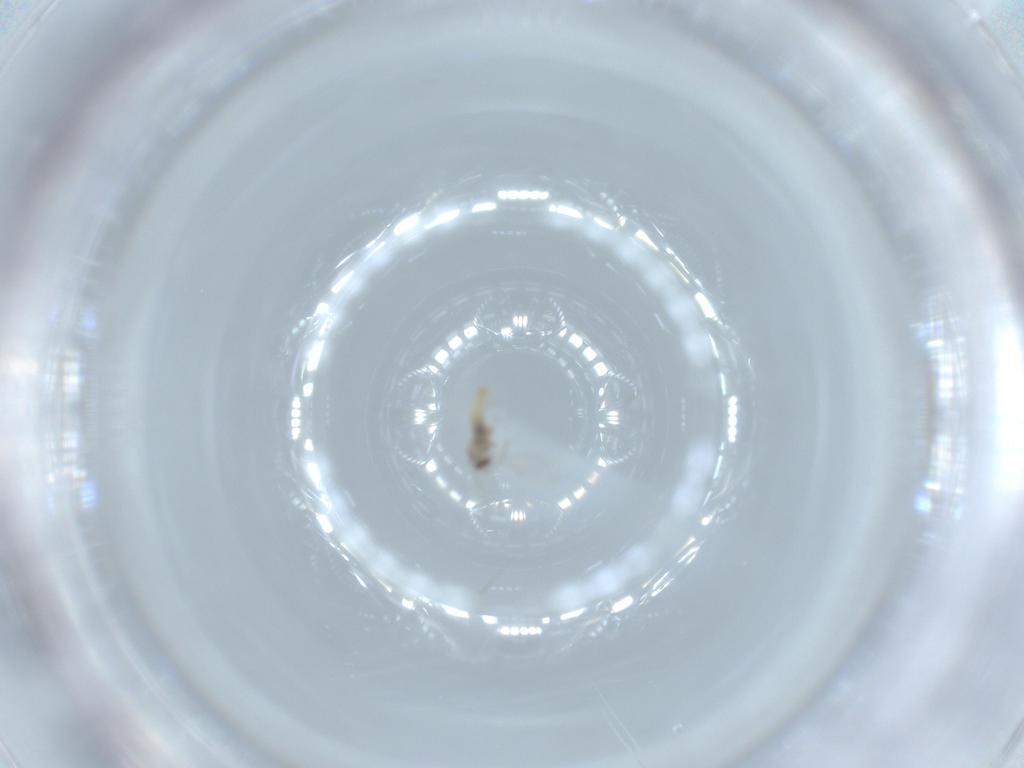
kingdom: Animalia
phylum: Arthropoda
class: Insecta
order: Diptera
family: Cecidomyiidae
